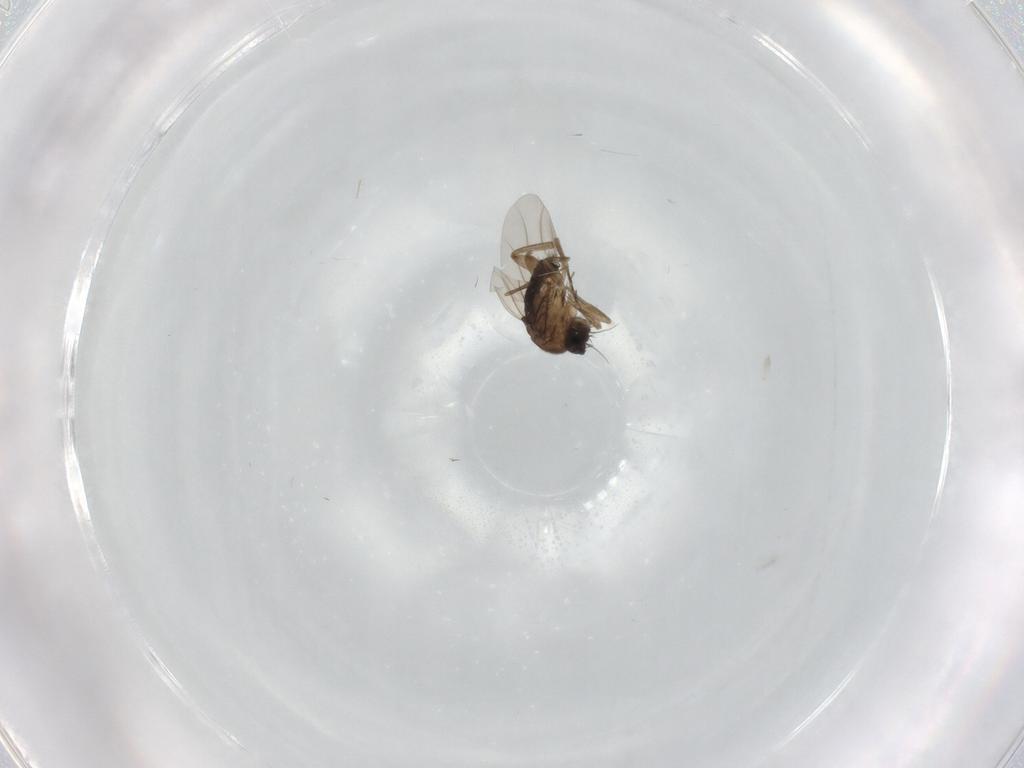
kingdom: Animalia
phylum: Arthropoda
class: Insecta
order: Diptera
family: Phoridae
